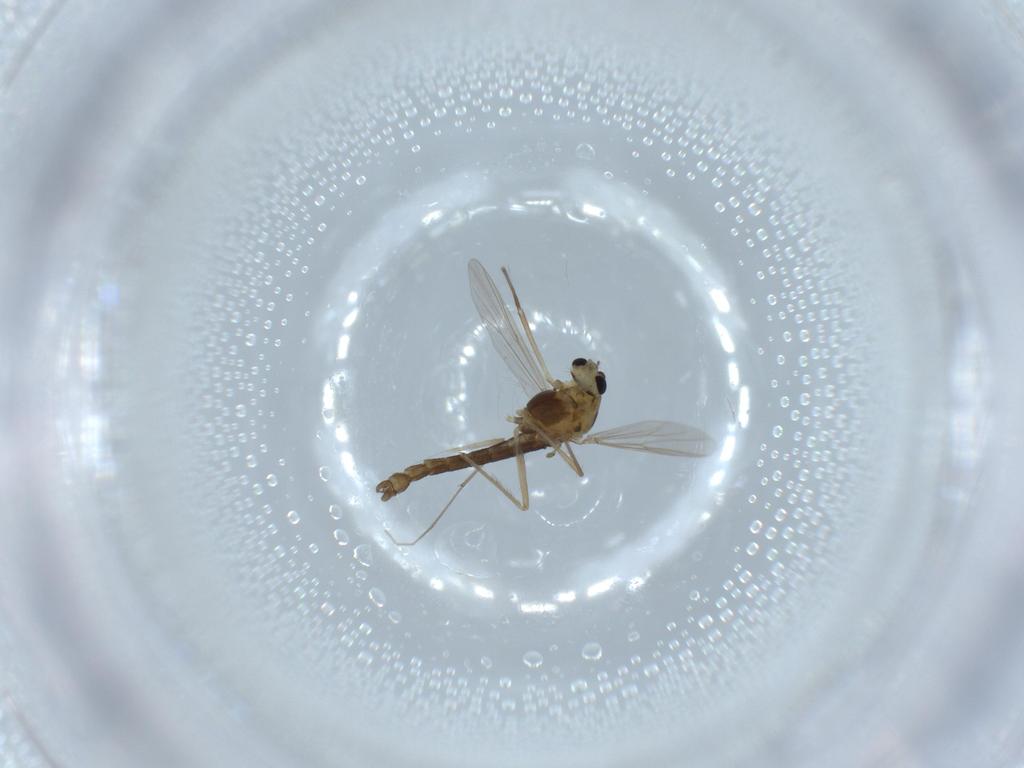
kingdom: Animalia
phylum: Arthropoda
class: Insecta
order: Diptera
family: Chironomidae
